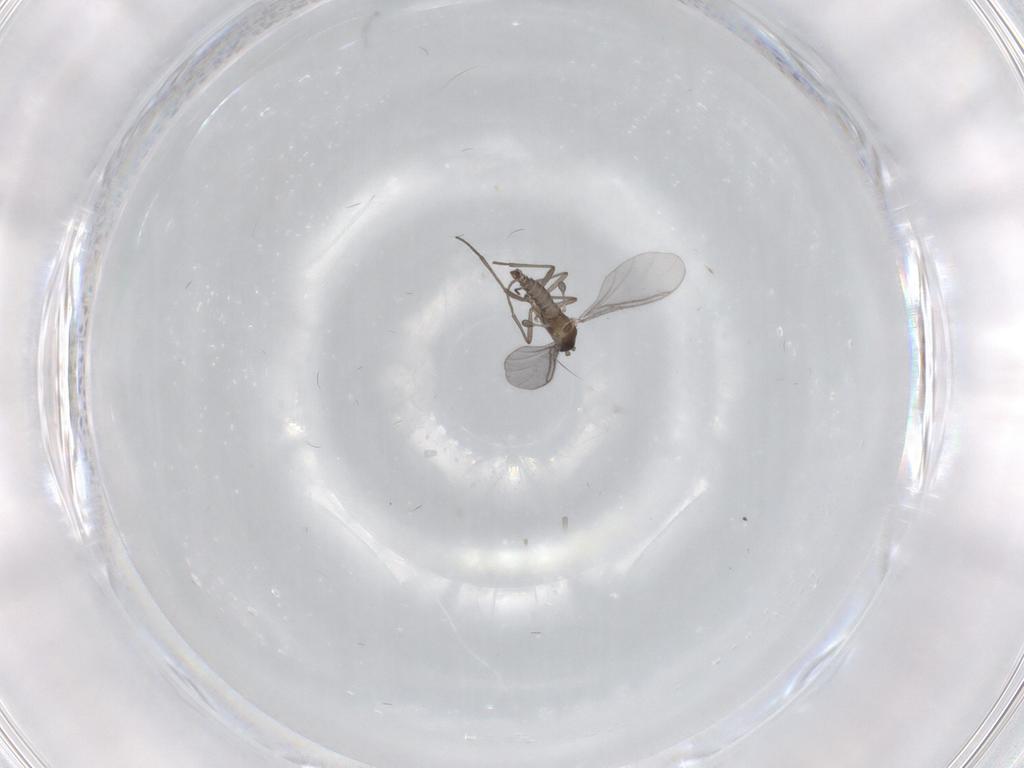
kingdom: Animalia
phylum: Arthropoda
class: Insecta
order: Diptera
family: Sciaridae
